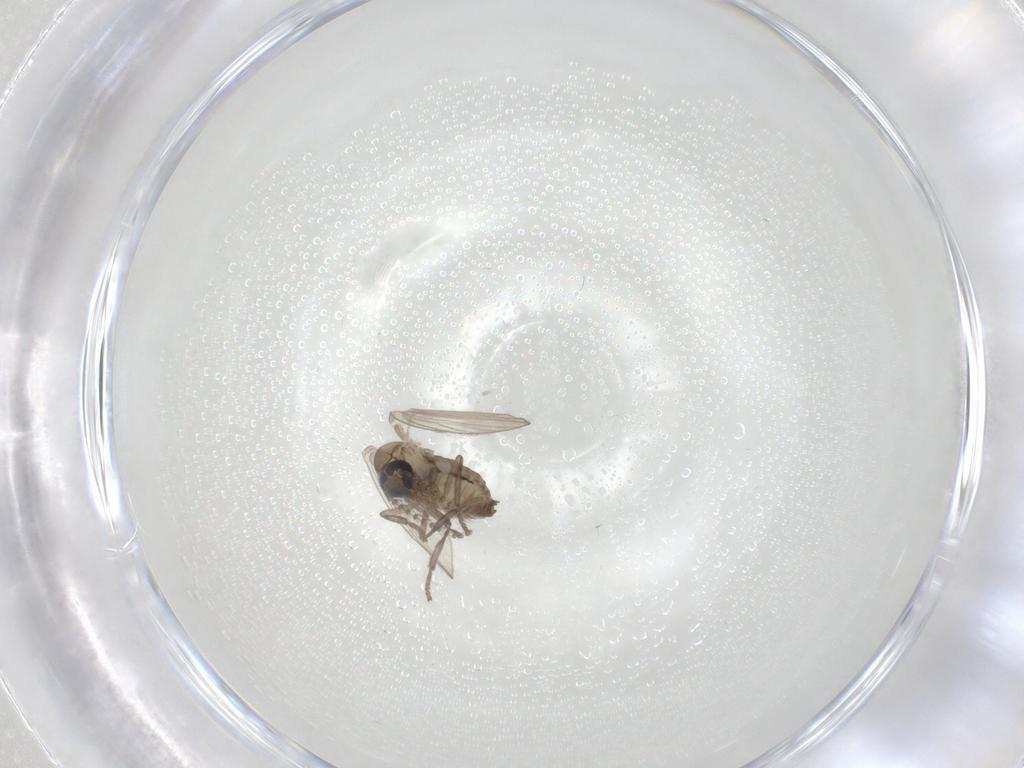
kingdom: Animalia
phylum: Arthropoda
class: Insecta
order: Diptera
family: Psychodidae
